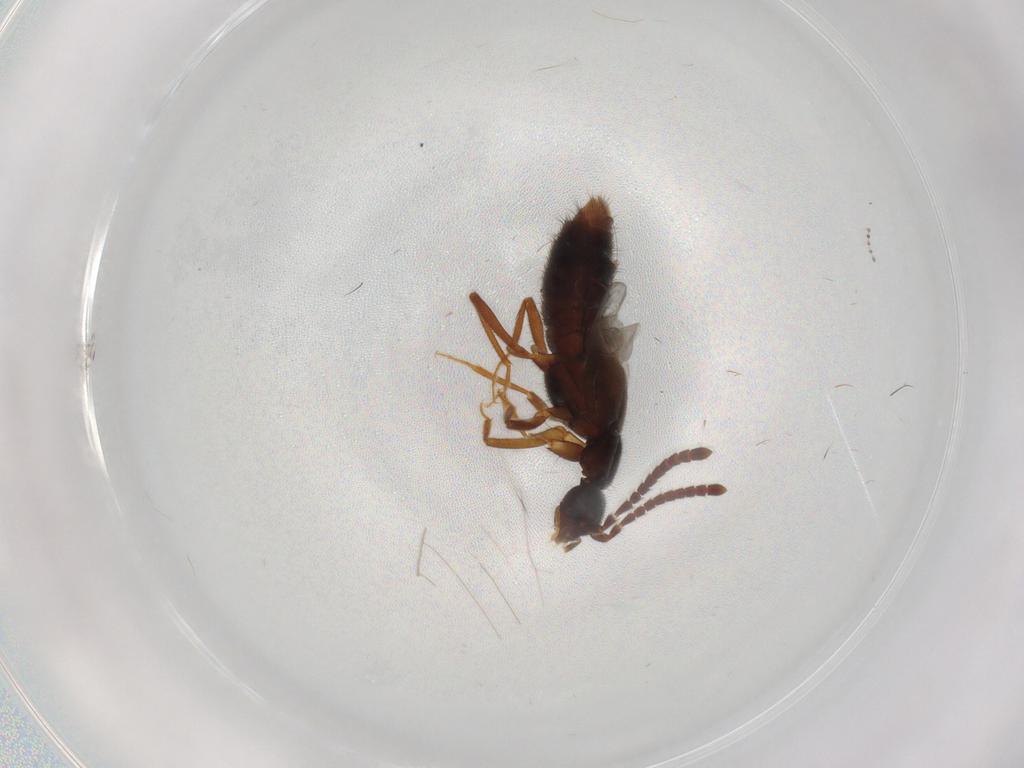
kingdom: Animalia
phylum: Arthropoda
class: Insecta
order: Coleoptera
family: Staphylinidae
